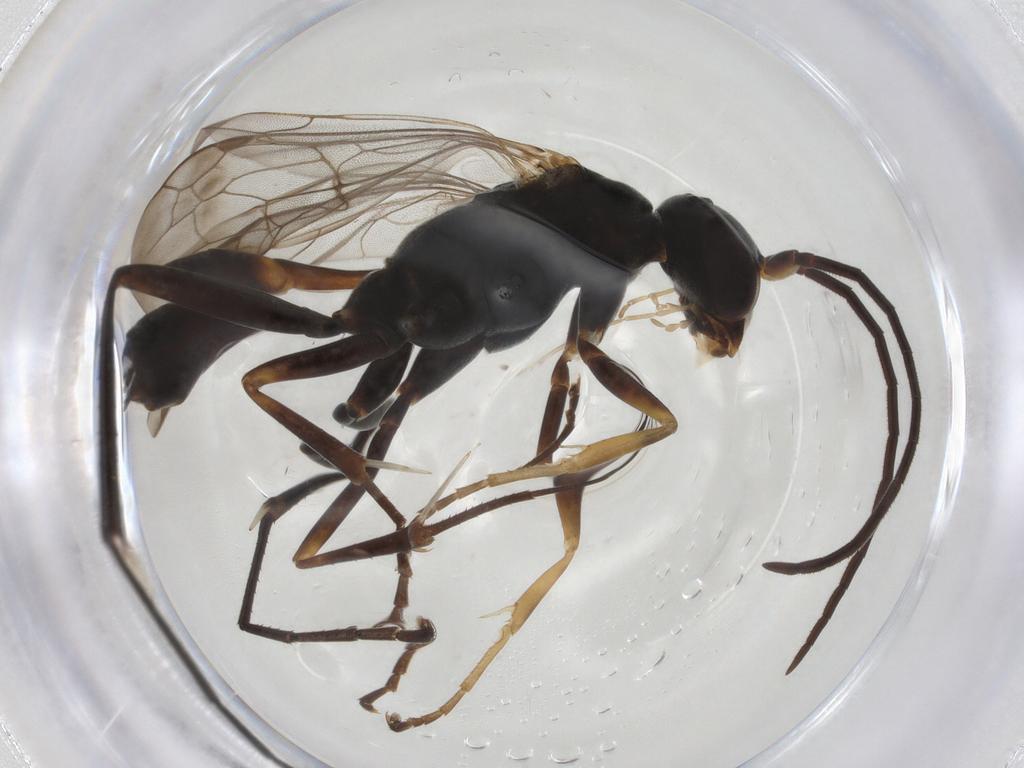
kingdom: Animalia
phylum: Arthropoda
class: Insecta
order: Hymenoptera
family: Pompilidae
